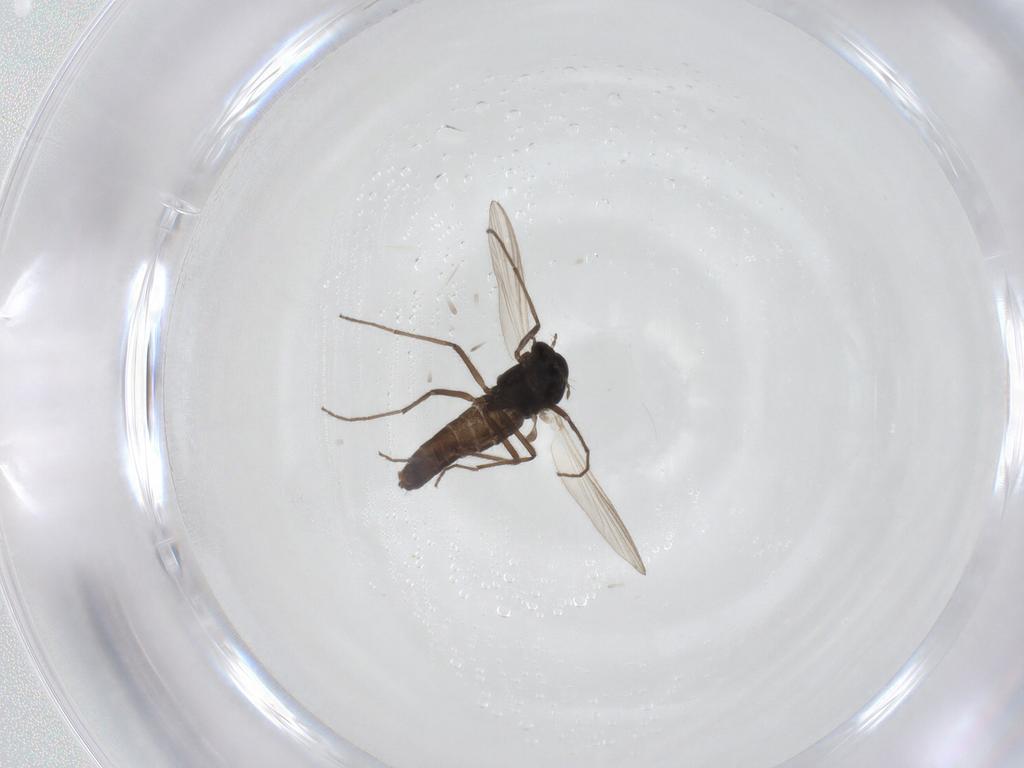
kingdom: Animalia
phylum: Arthropoda
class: Insecta
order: Diptera
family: Chironomidae
